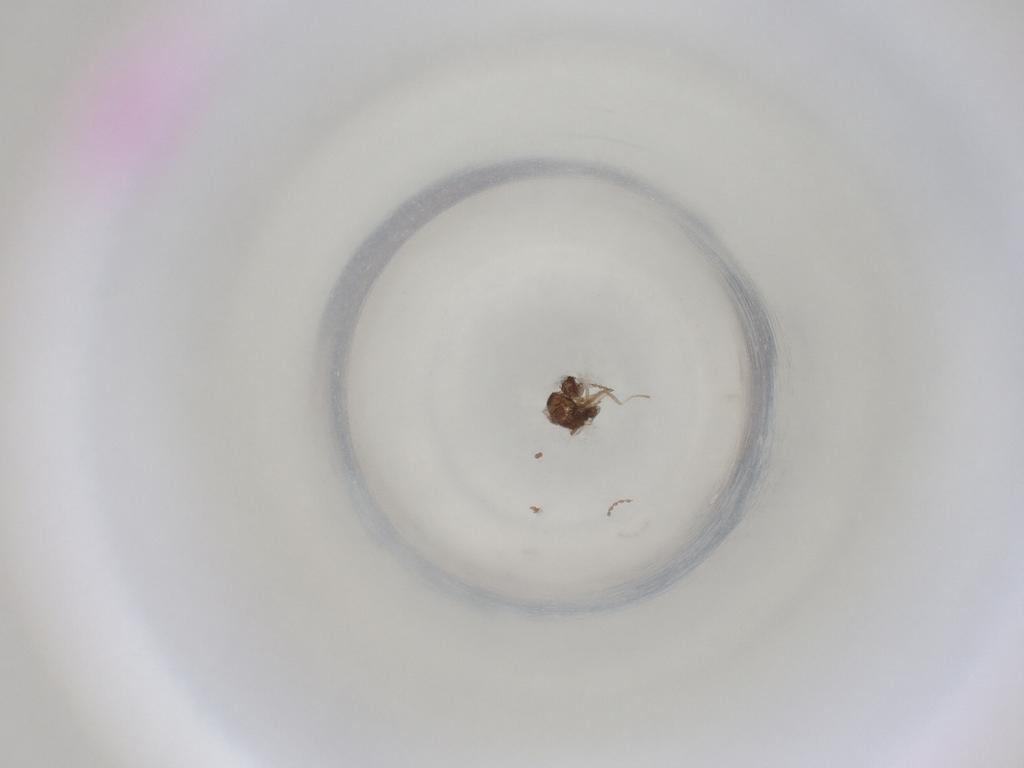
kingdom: Animalia
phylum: Arthropoda
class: Insecta
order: Diptera
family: Cecidomyiidae
